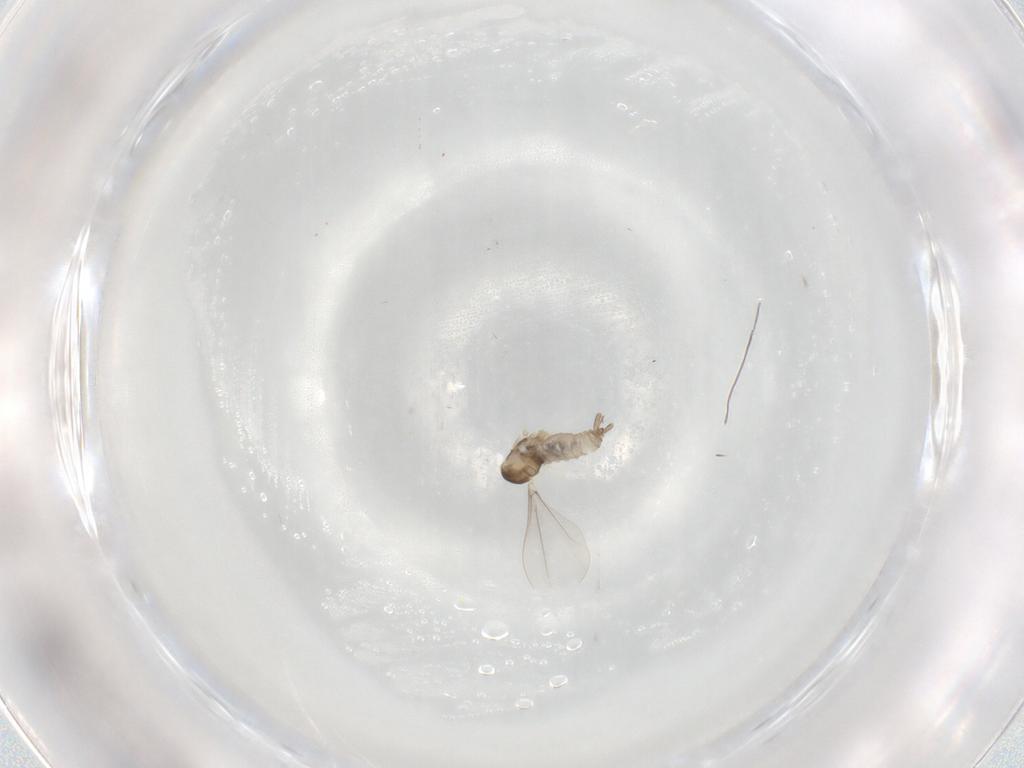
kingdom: Animalia
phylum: Arthropoda
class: Insecta
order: Diptera
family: Cecidomyiidae
